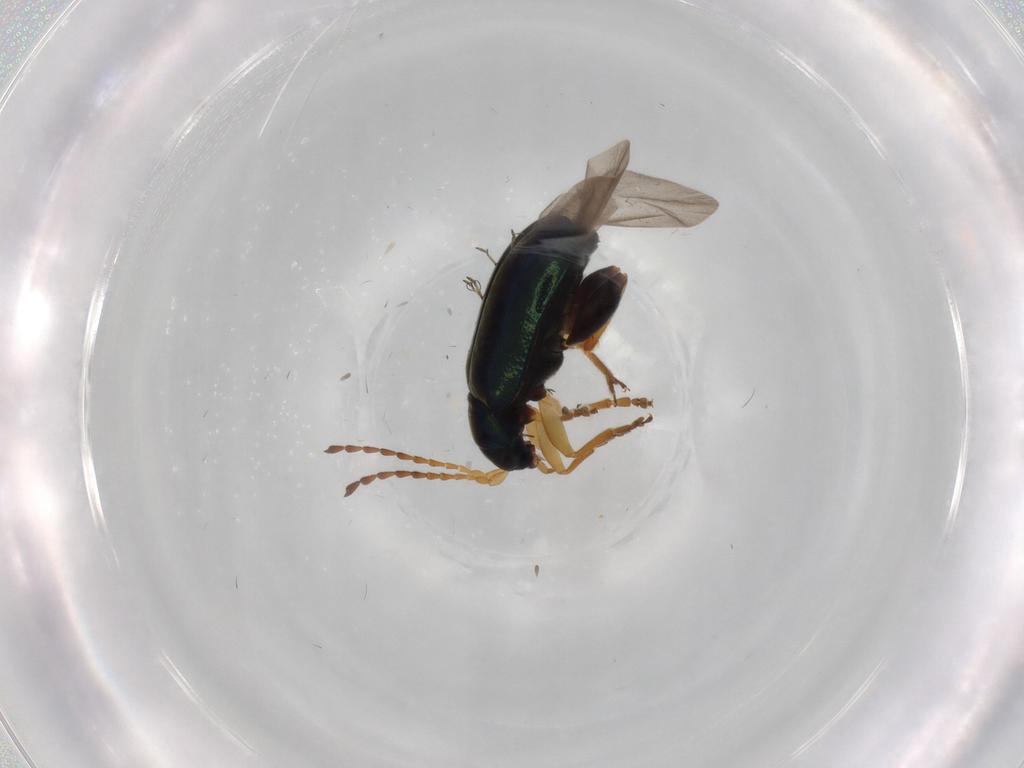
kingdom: Animalia
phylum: Arthropoda
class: Insecta
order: Coleoptera
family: Chrysomelidae
